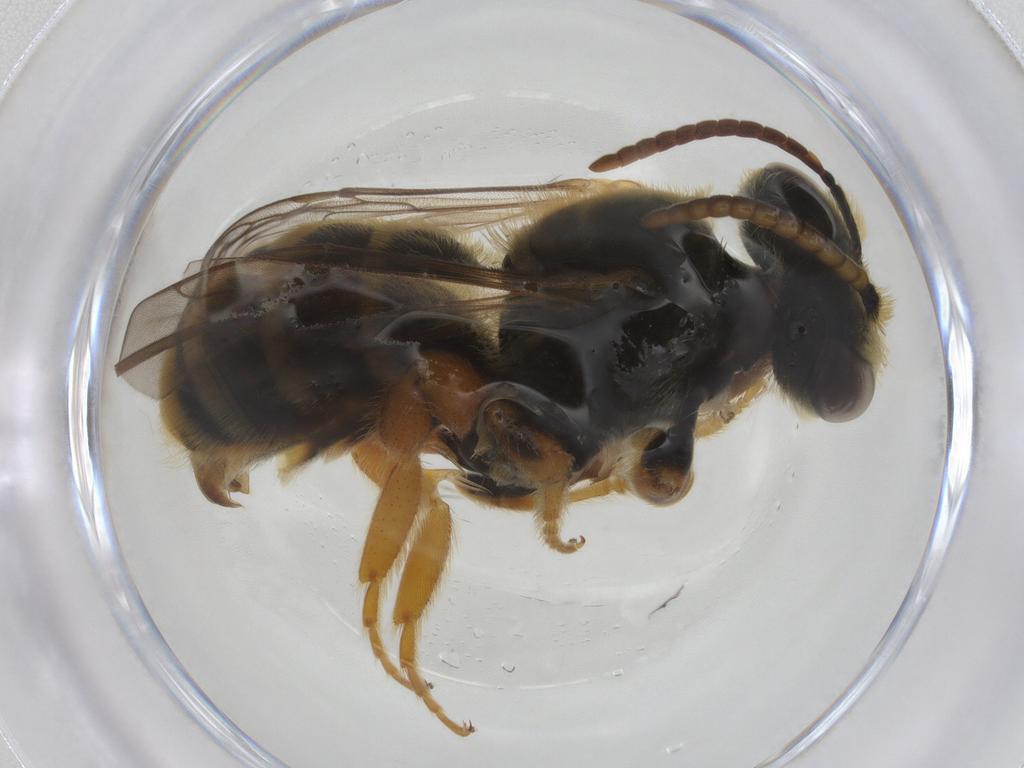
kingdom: Animalia
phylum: Arthropoda
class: Insecta
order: Hymenoptera
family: Halictidae
